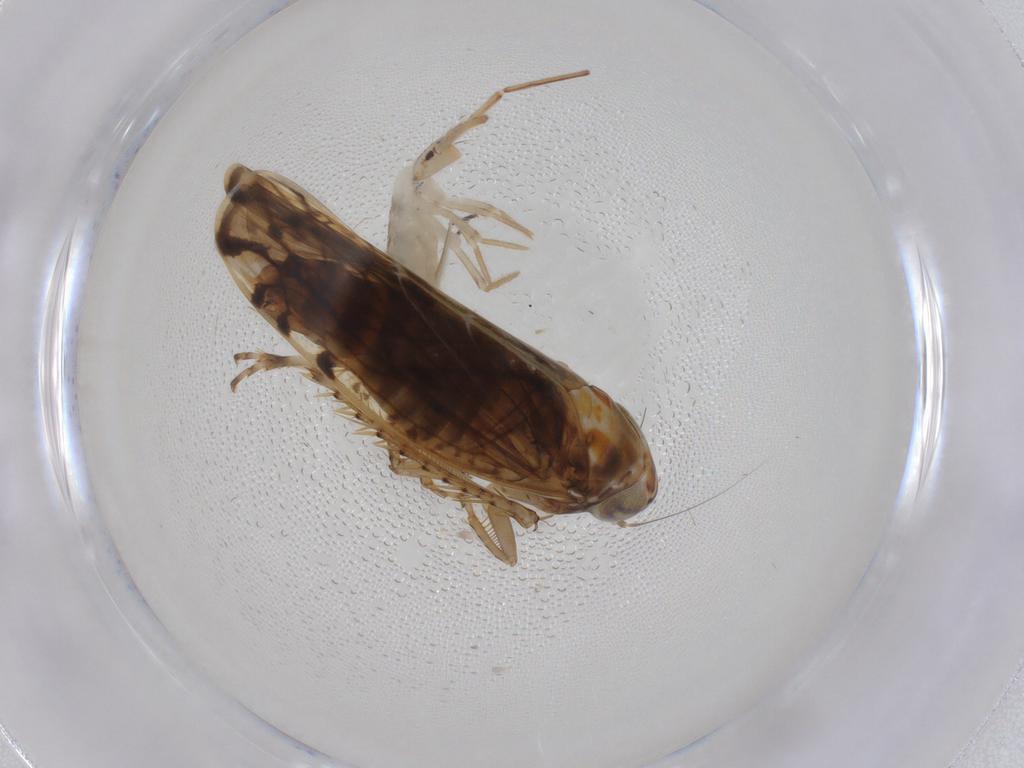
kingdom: Animalia
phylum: Arthropoda
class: Collembola
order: Entomobryomorpha
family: Entomobryidae
